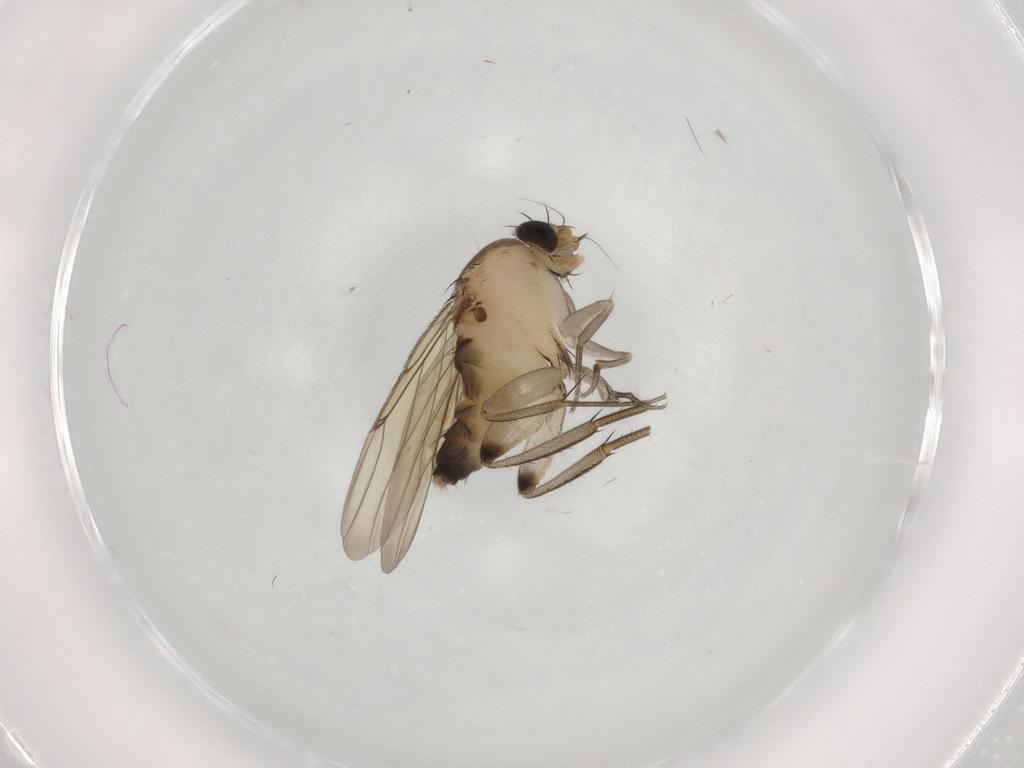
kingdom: Animalia
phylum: Arthropoda
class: Insecta
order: Diptera
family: Phoridae
